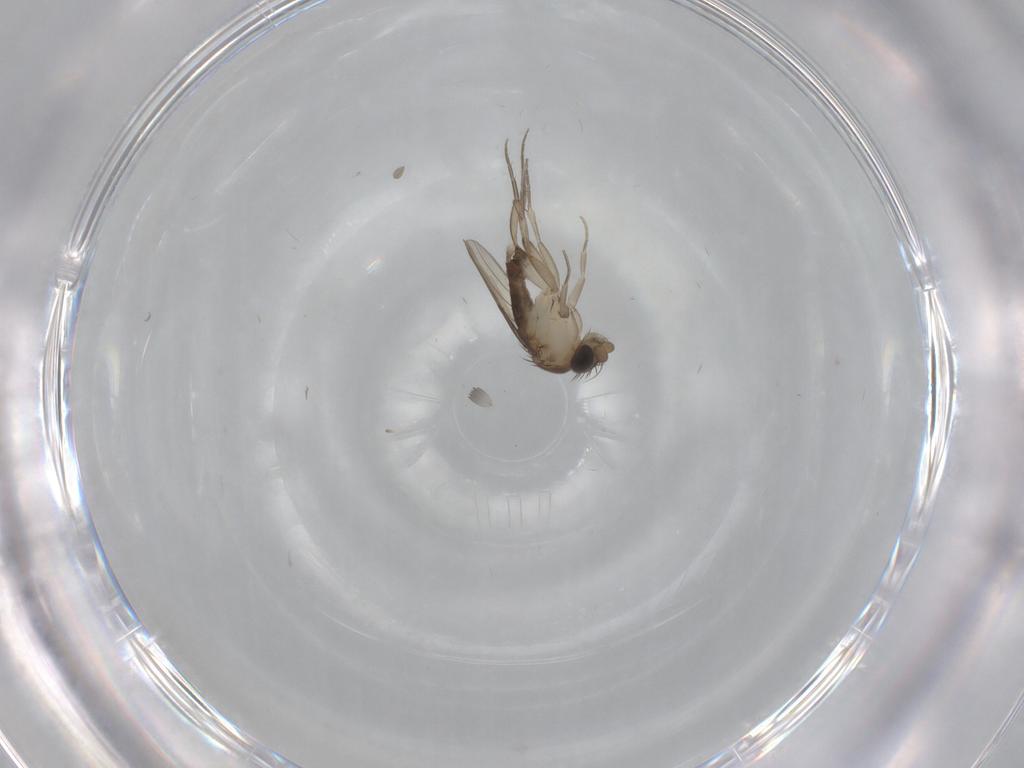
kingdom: Animalia
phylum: Arthropoda
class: Insecta
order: Diptera
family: Phoridae
